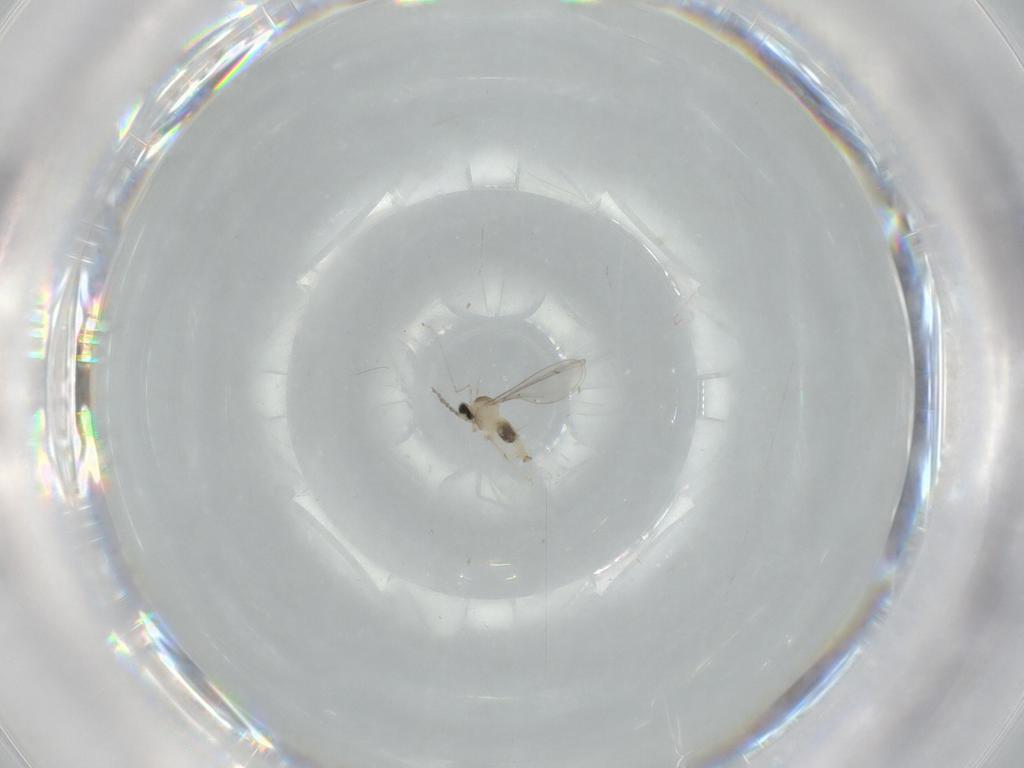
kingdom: Animalia
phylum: Arthropoda
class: Insecta
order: Diptera
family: Cecidomyiidae
